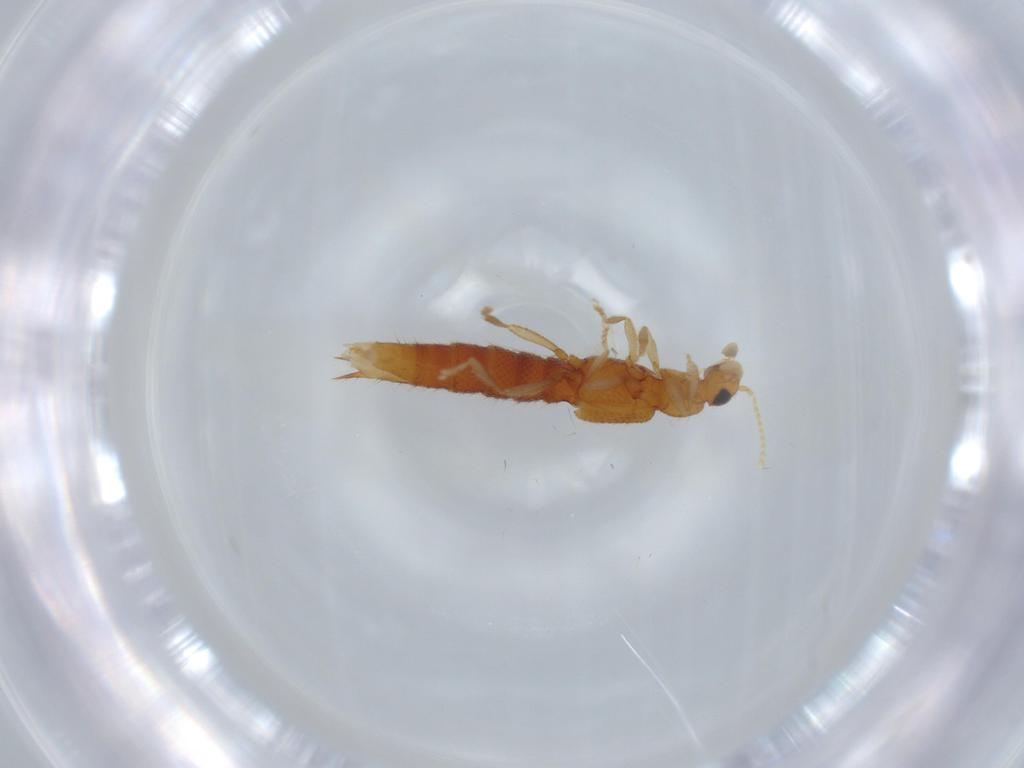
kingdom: Animalia
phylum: Arthropoda
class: Insecta
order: Coleoptera
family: Staphylinidae
